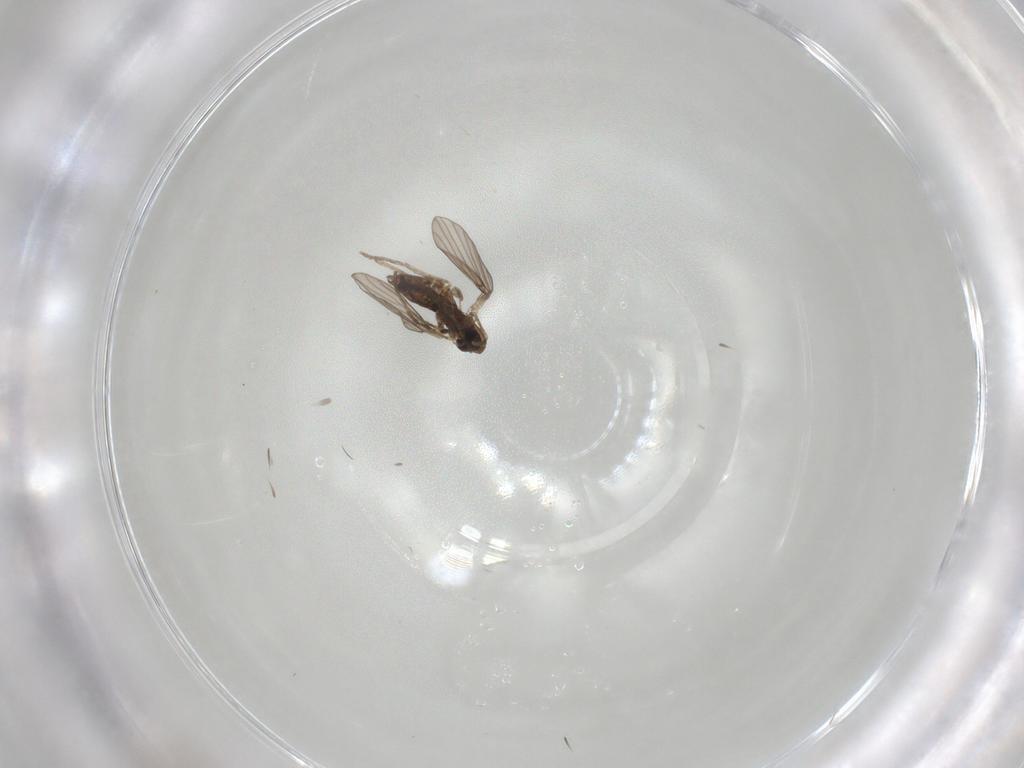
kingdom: Animalia
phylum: Arthropoda
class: Insecta
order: Diptera
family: Chironomidae
